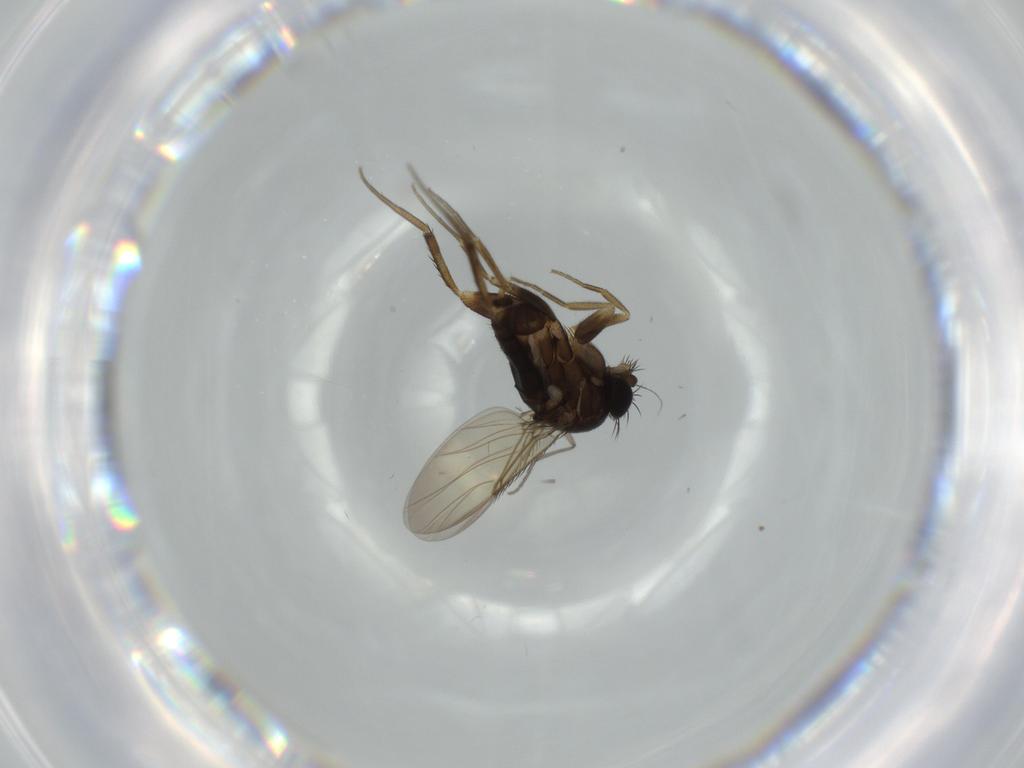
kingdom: Animalia
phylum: Arthropoda
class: Insecta
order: Diptera
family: Phoridae
